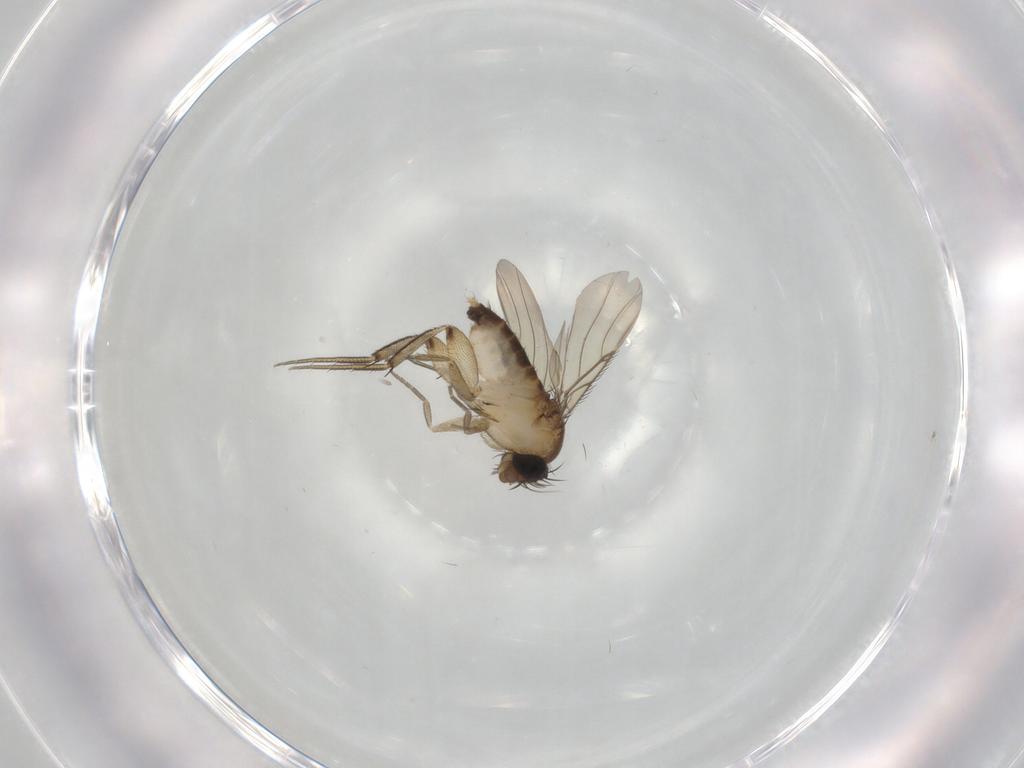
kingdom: Animalia
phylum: Arthropoda
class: Insecta
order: Diptera
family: Phoridae
